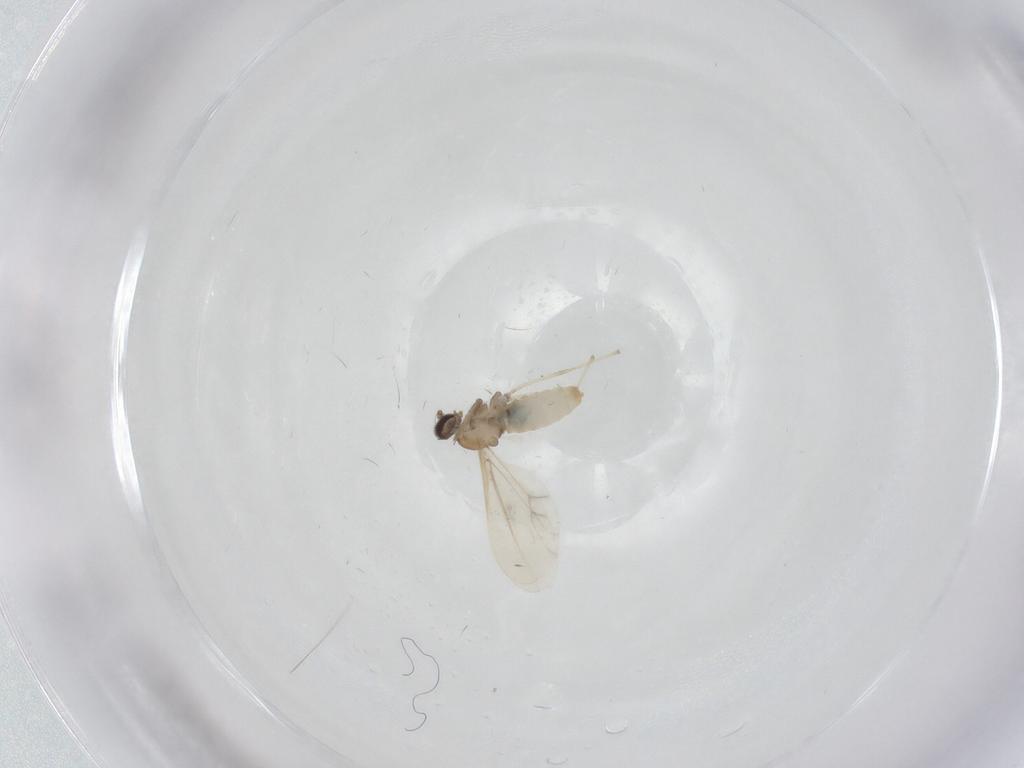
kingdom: Animalia
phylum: Arthropoda
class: Insecta
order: Diptera
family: Cecidomyiidae
